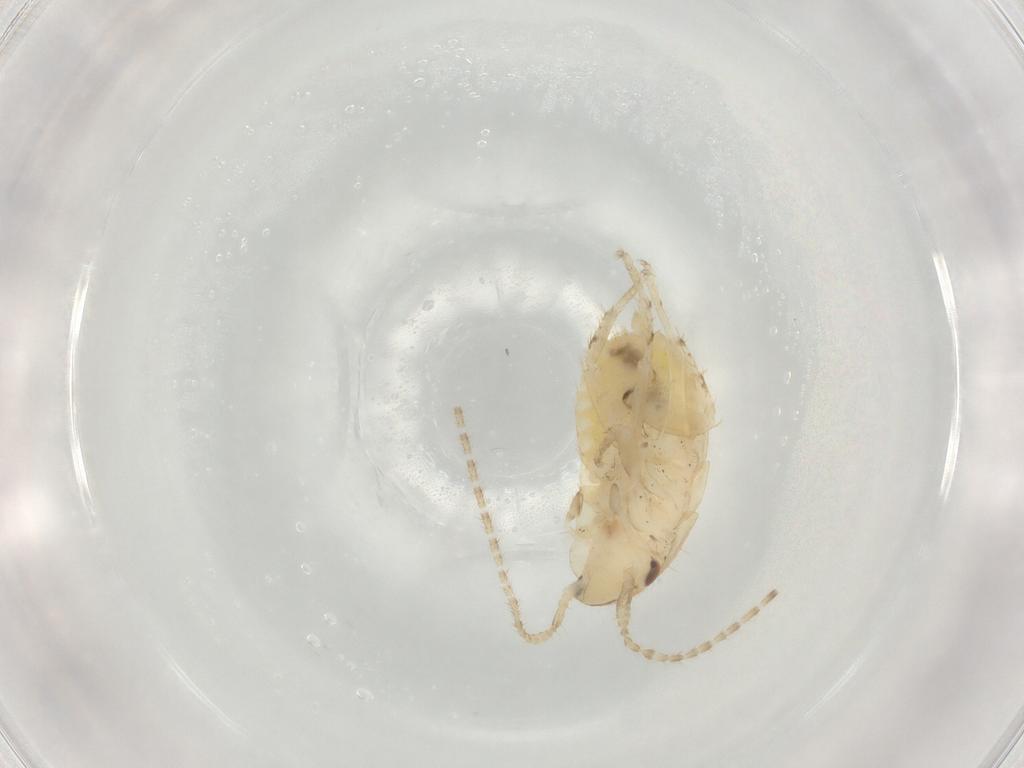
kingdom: Animalia
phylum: Arthropoda
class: Insecta
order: Blattodea
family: Ectobiidae
